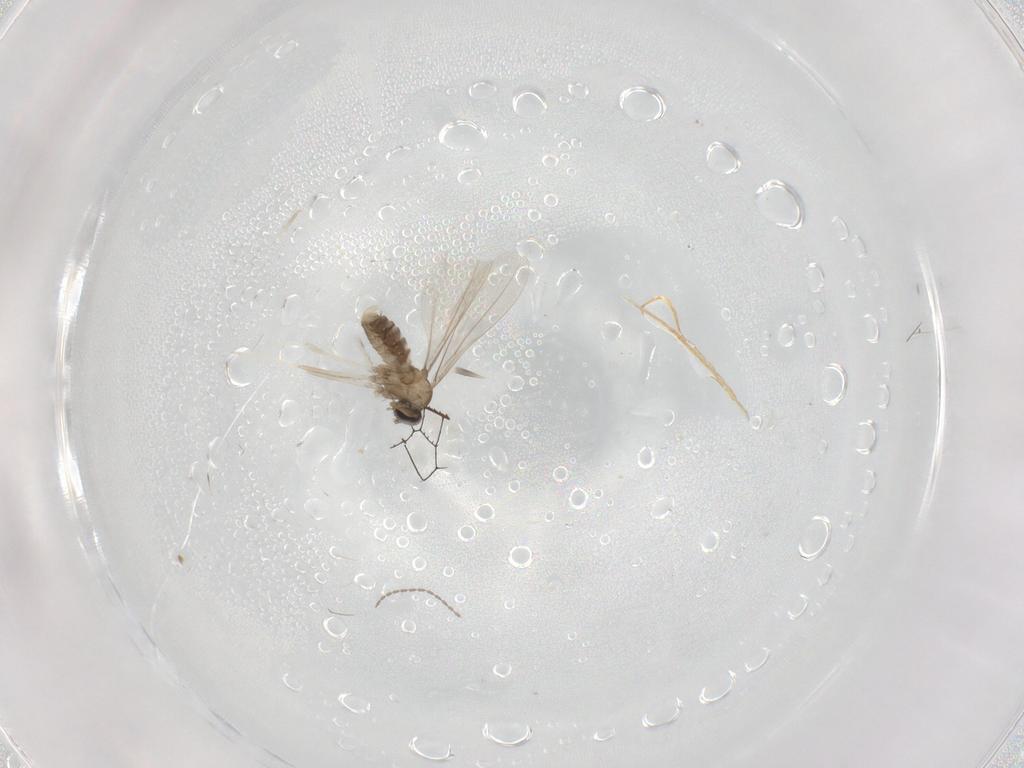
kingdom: Animalia
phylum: Arthropoda
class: Insecta
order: Diptera
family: Cecidomyiidae
